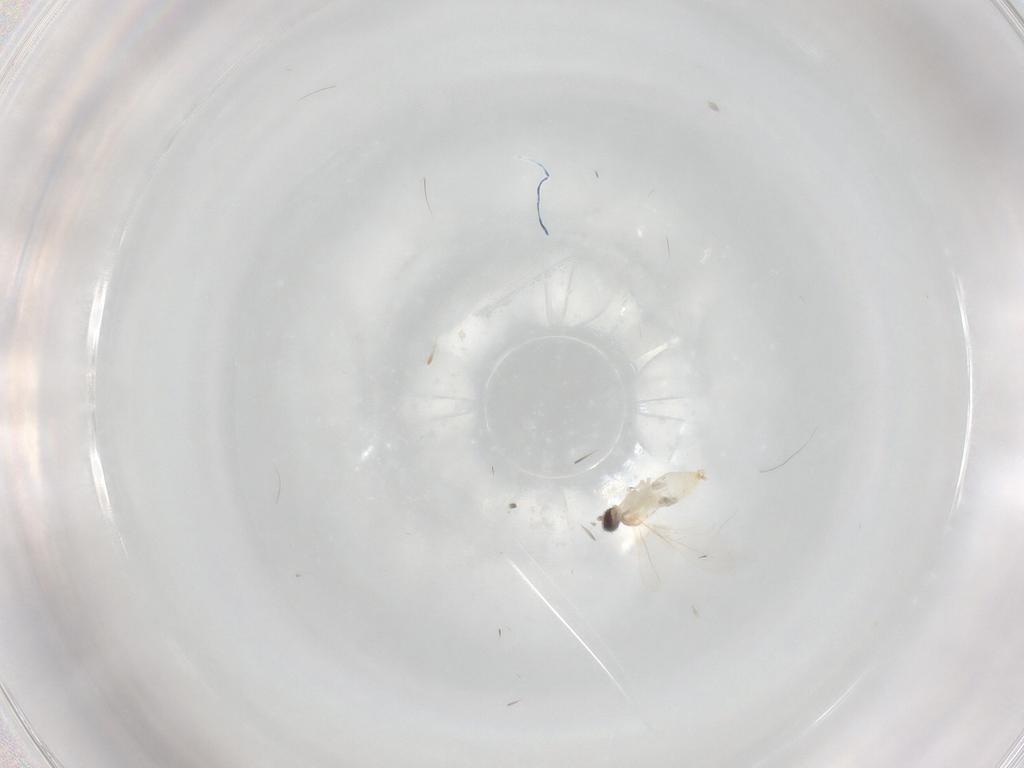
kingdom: Animalia
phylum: Arthropoda
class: Insecta
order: Diptera
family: Cecidomyiidae
